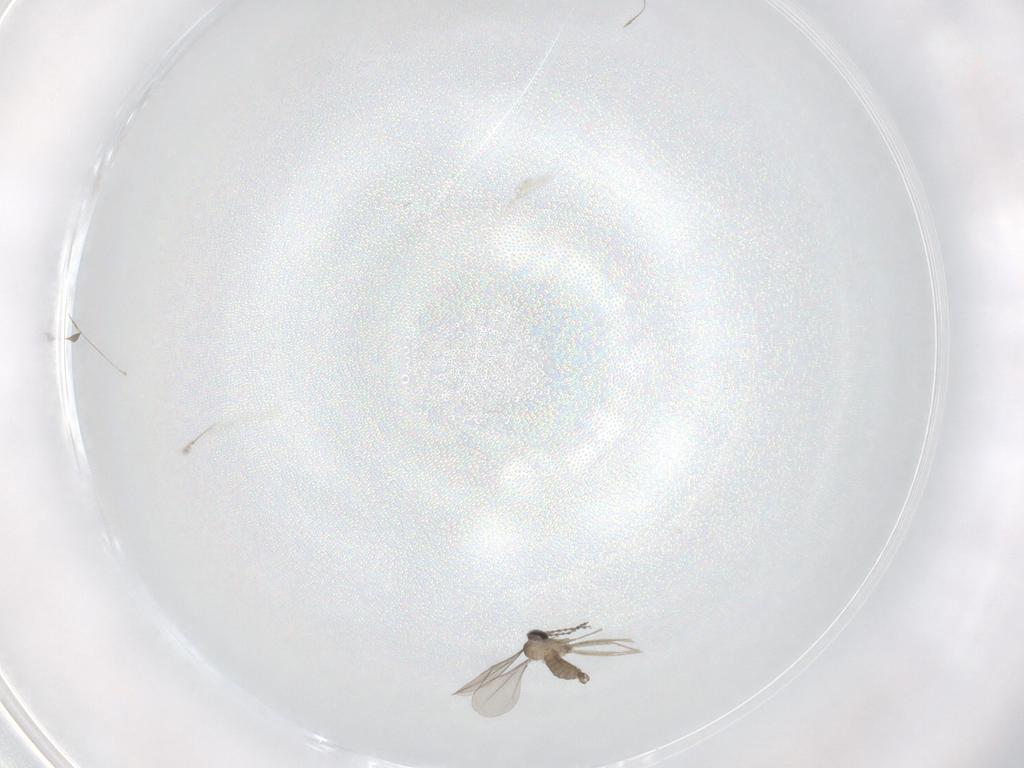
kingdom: Animalia
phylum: Arthropoda
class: Insecta
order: Diptera
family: Cecidomyiidae
